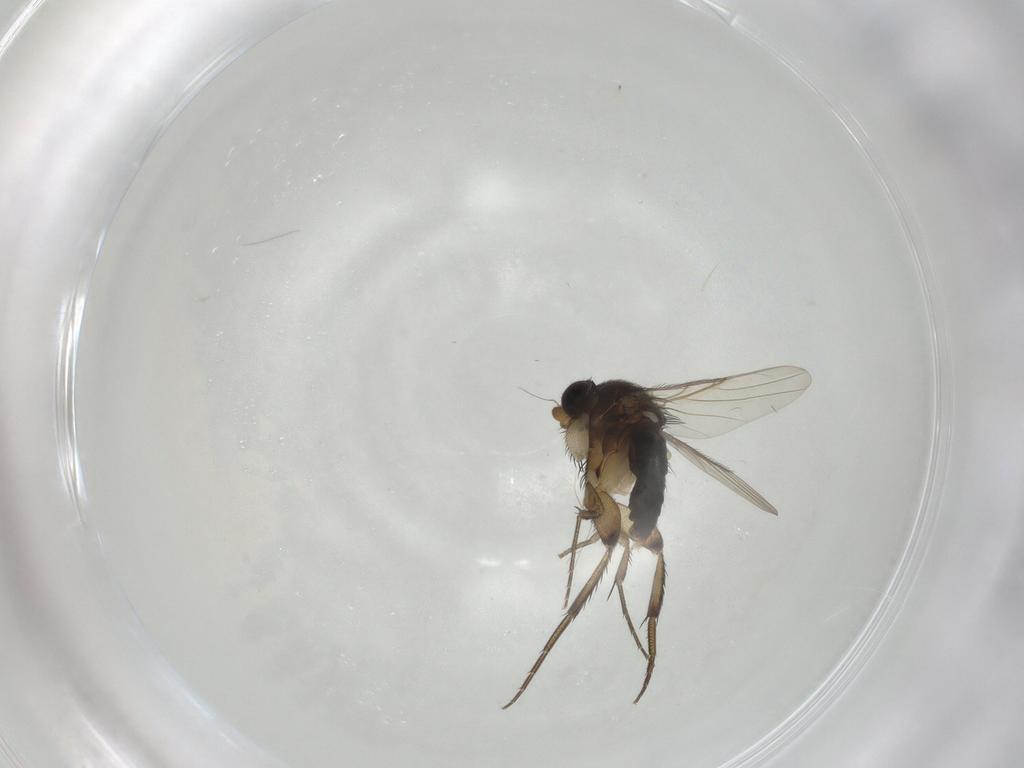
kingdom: Animalia
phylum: Arthropoda
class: Insecta
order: Diptera
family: Phoridae
